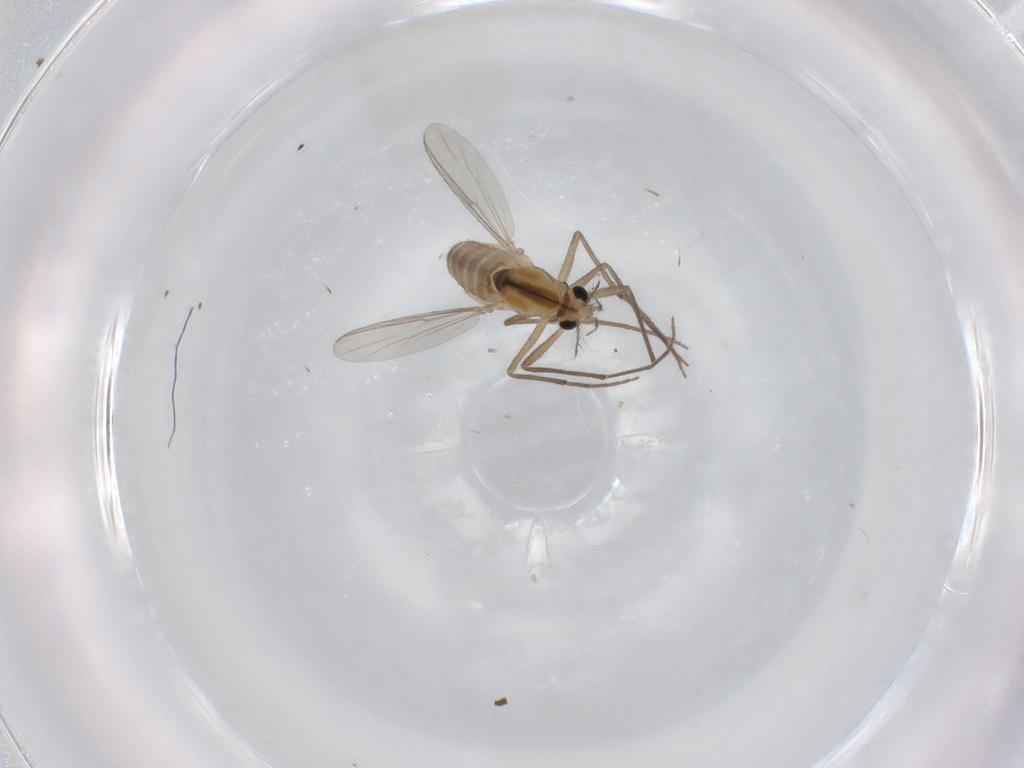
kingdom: Animalia
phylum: Arthropoda
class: Insecta
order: Diptera
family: Chironomidae
